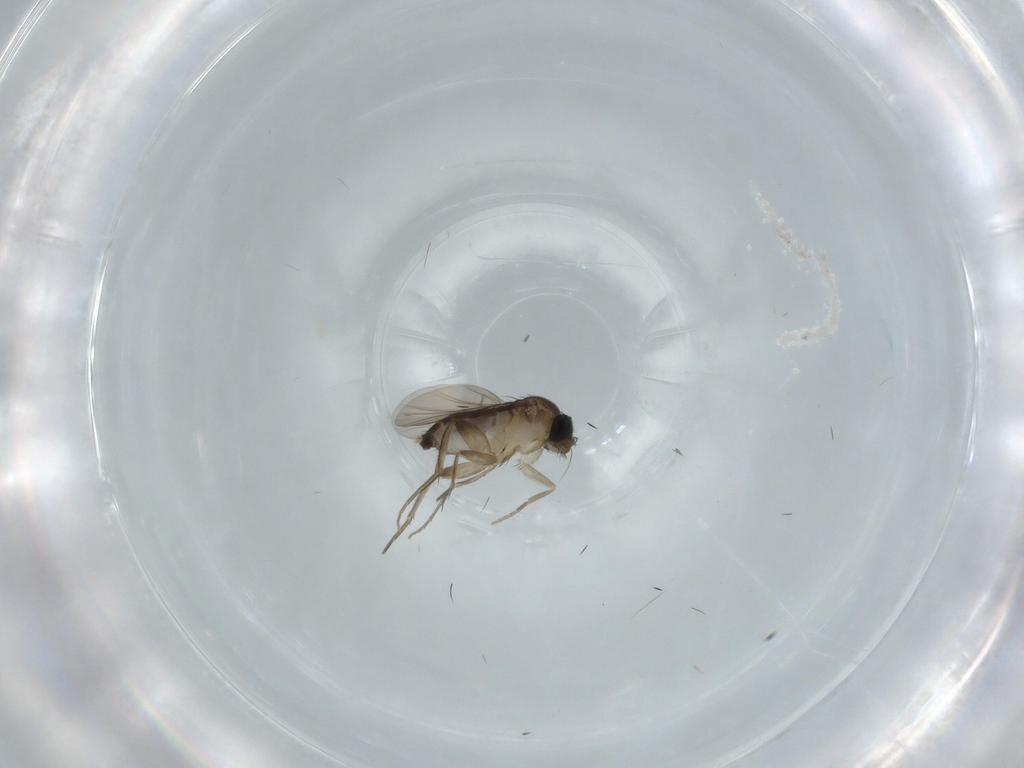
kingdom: Animalia
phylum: Arthropoda
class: Insecta
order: Diptera
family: Phoridae
